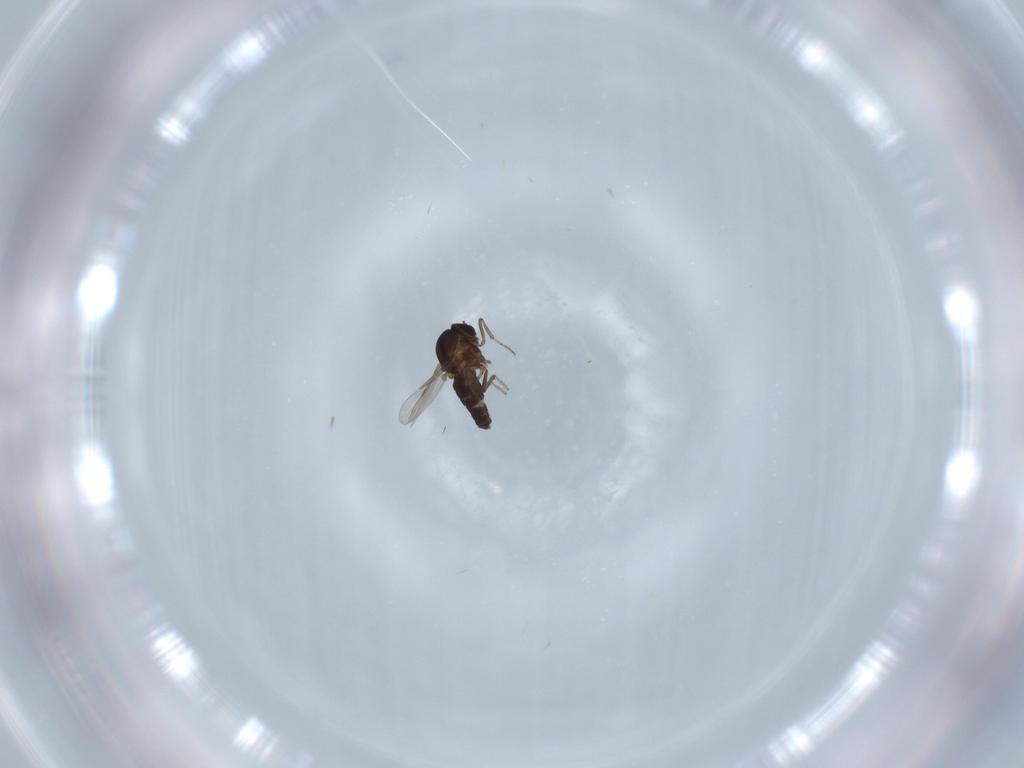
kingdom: Animalia
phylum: Arthropoda
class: Insecta
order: Diptera
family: Ceratopogonidae
